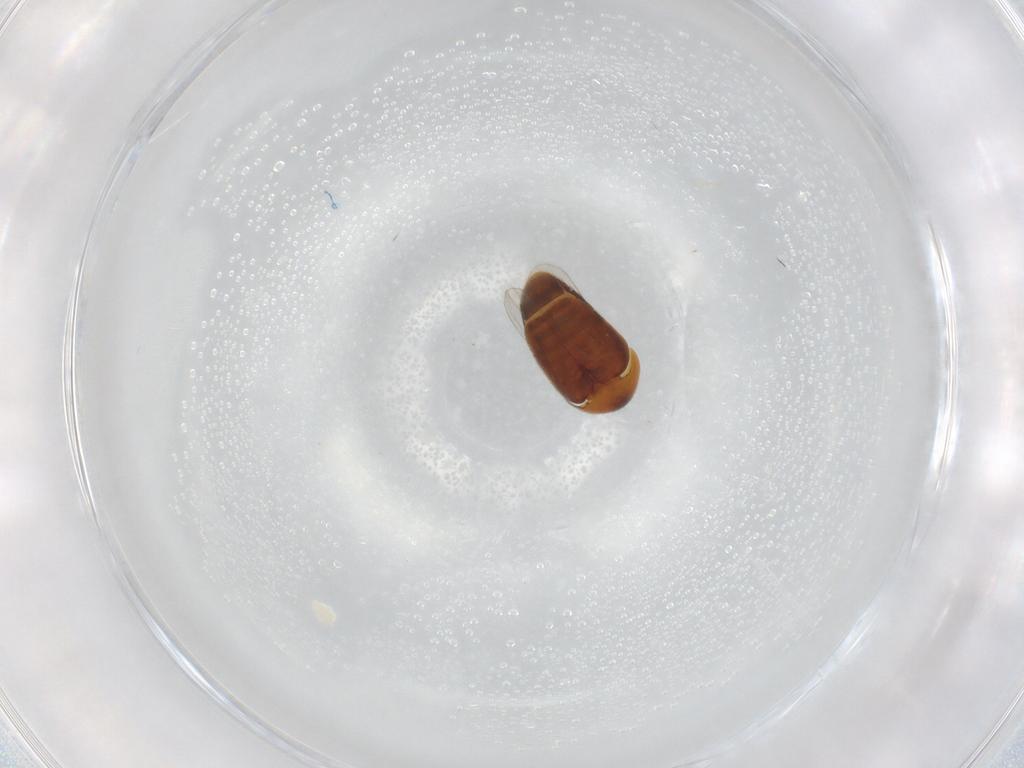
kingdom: Animalia
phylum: Arthropoda
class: Insecta
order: Coleoptera
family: Corylophidae
